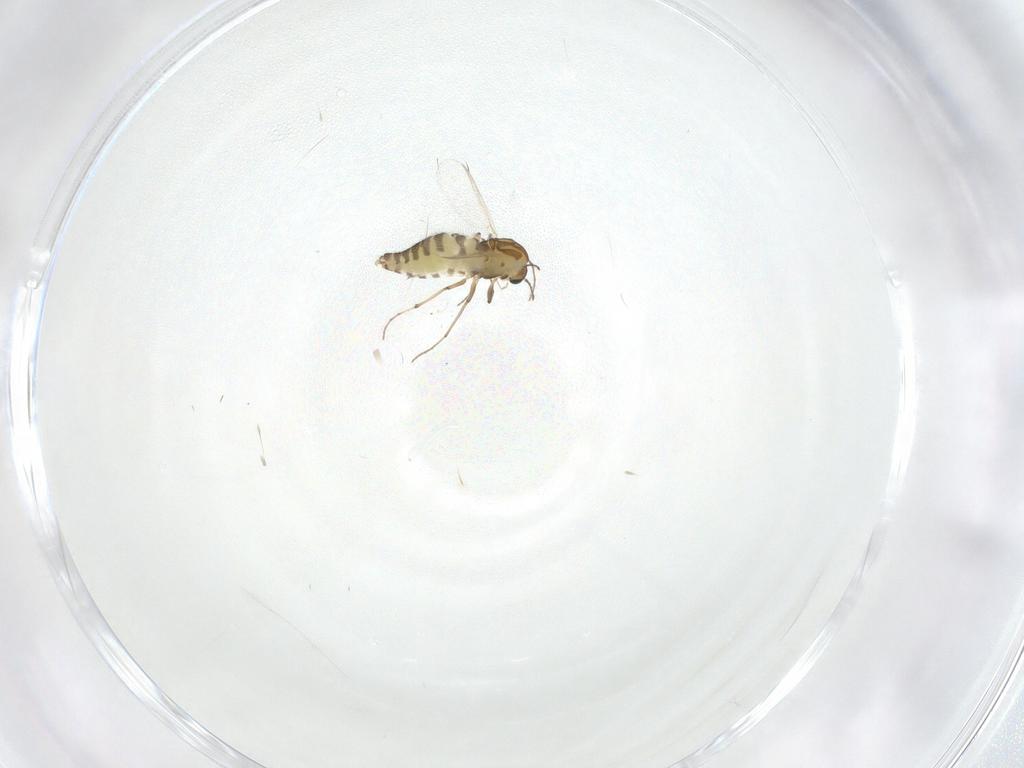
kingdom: Animalia
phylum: Arthropoda
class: Insecta
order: Diptera
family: Chironomidae
